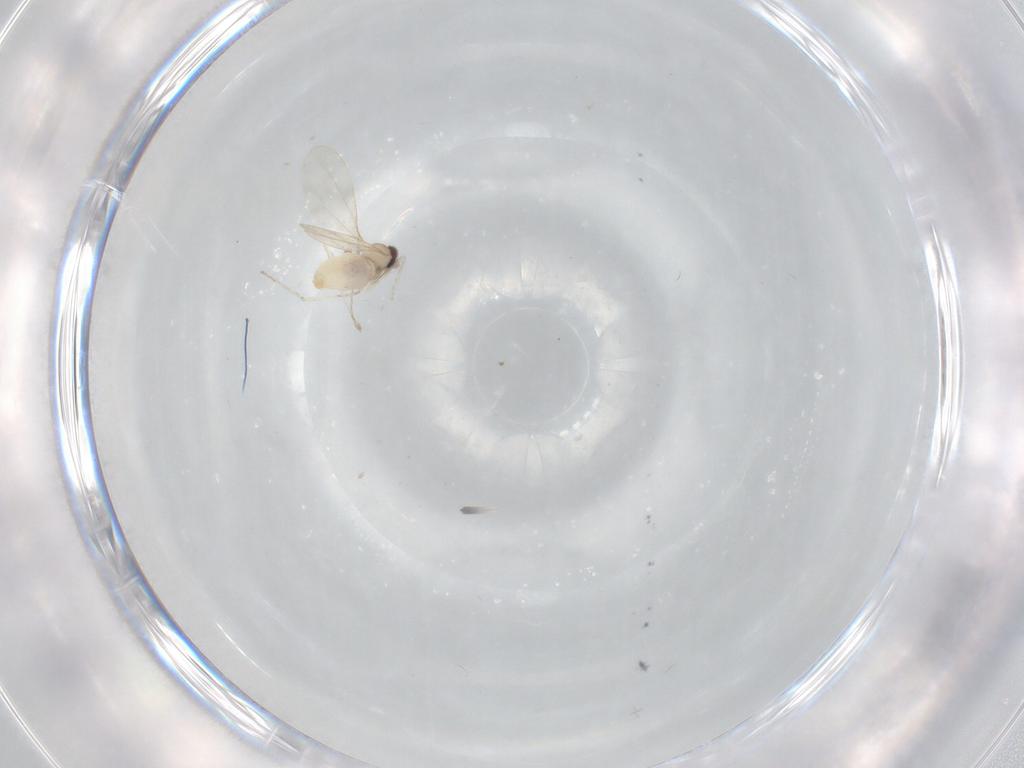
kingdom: Animalia
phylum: Arthropoda
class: Insecta
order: Diptera
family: Cecidomyiidae
